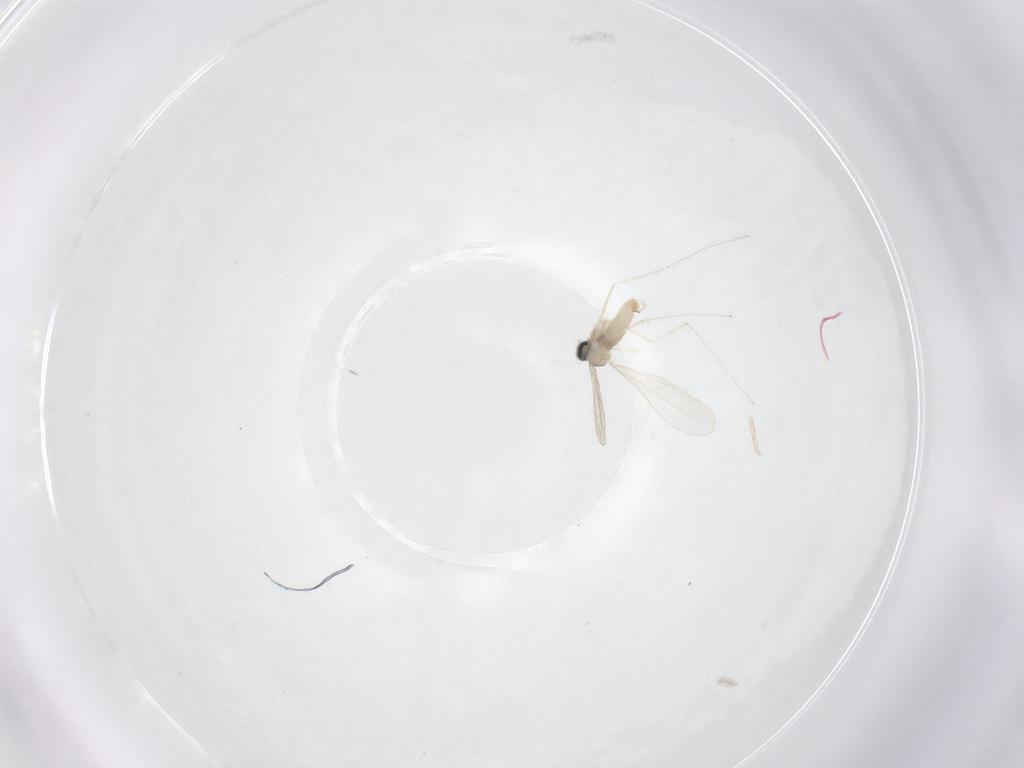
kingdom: Animalia
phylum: Arthropoda
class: Insecta
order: Diptera
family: Cecidomyiidae
